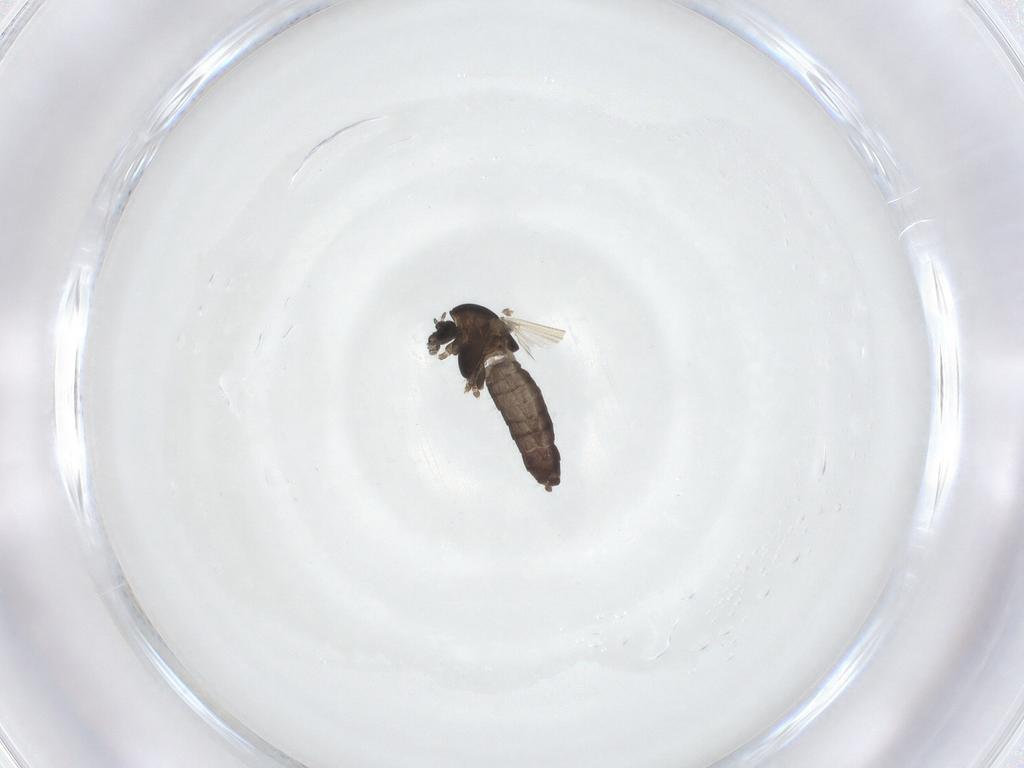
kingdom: Animalia
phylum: Arthropoda
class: Insecta
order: Diptera
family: Chironomidae
